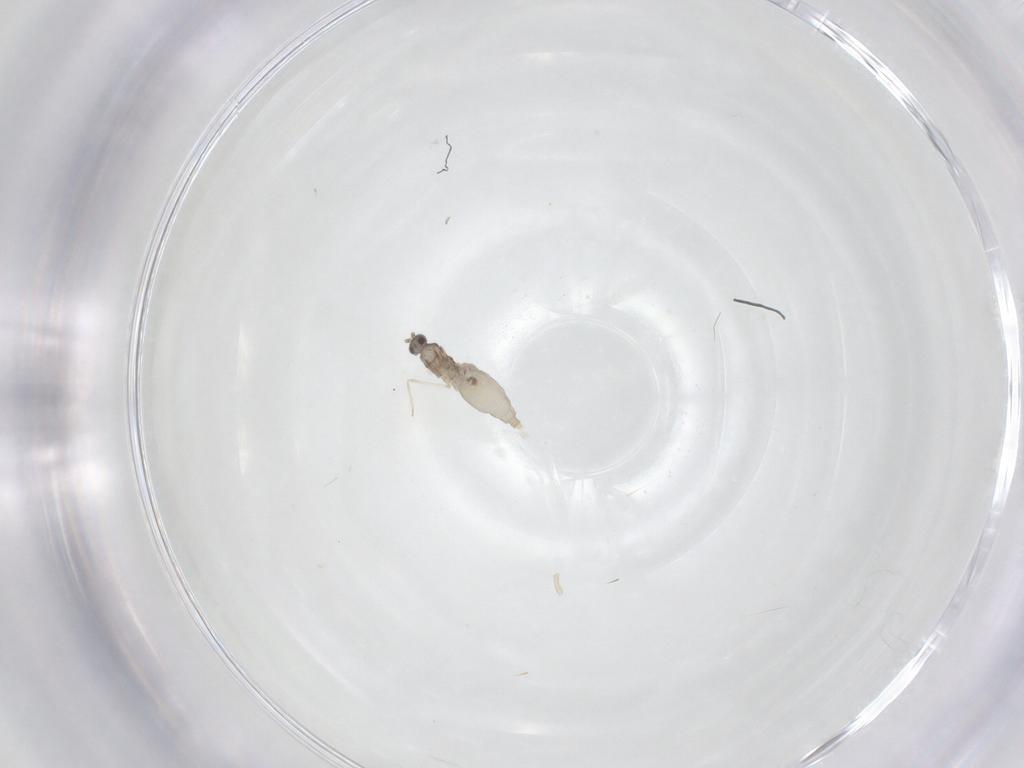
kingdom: Animalia
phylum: Arthropoda
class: Insecta
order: Diptera
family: Cecidomyiidae
